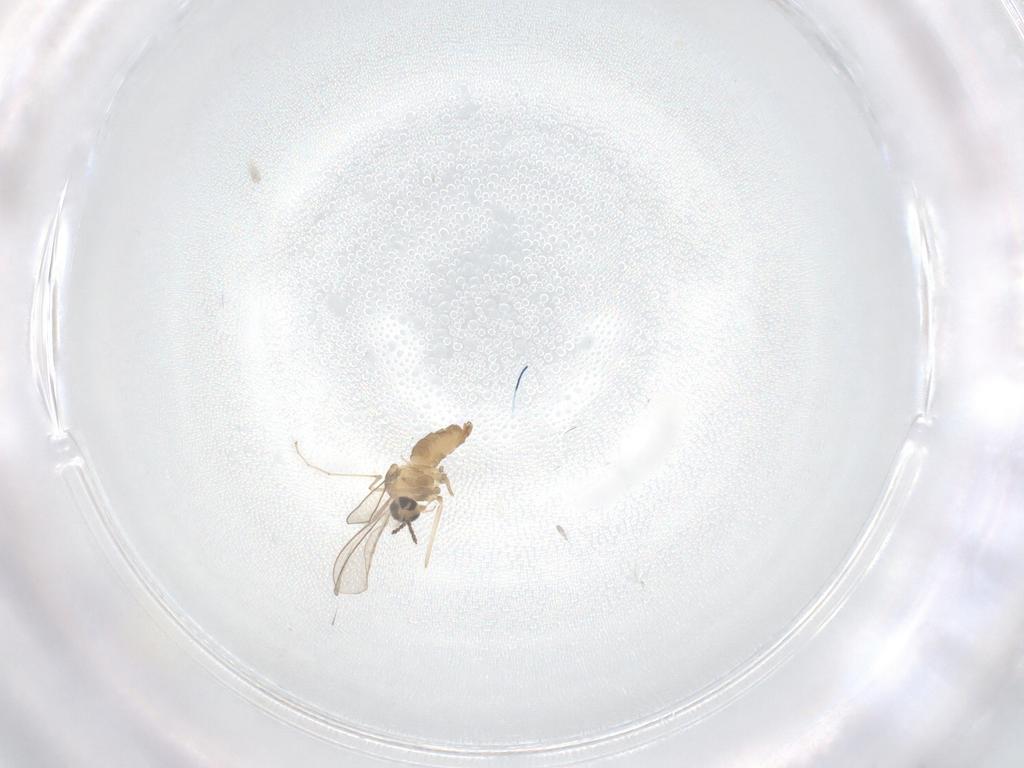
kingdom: Animalia
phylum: Arthropoda
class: Insecta
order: Diptera
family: Cecidomyiidae
